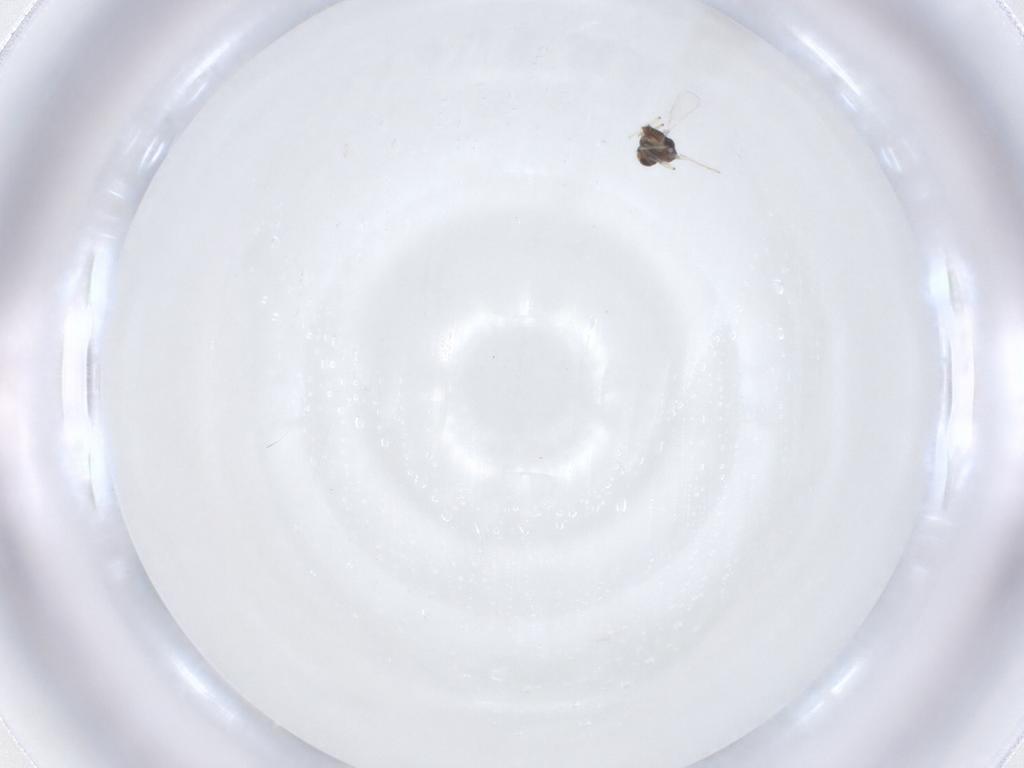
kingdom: Animalia
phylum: Arthropoda
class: Insecta
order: Diptera
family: Chironomidae
